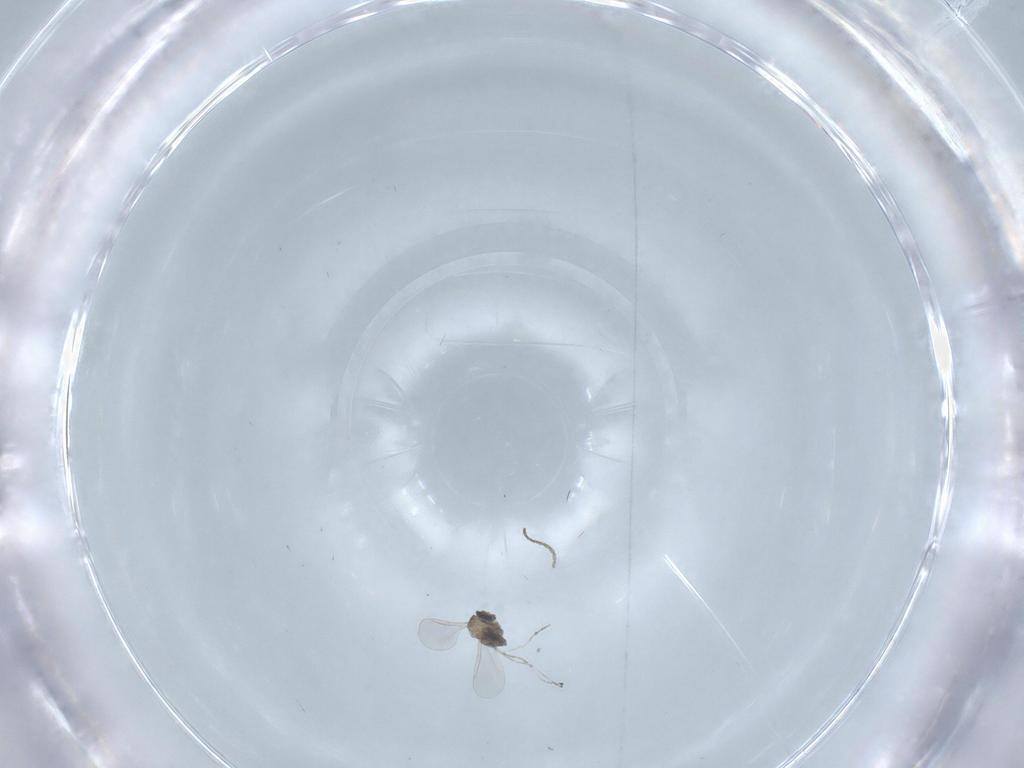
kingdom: Animalia
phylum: Arthropoda
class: Insecta
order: Diptera
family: Cecidomyiidae
